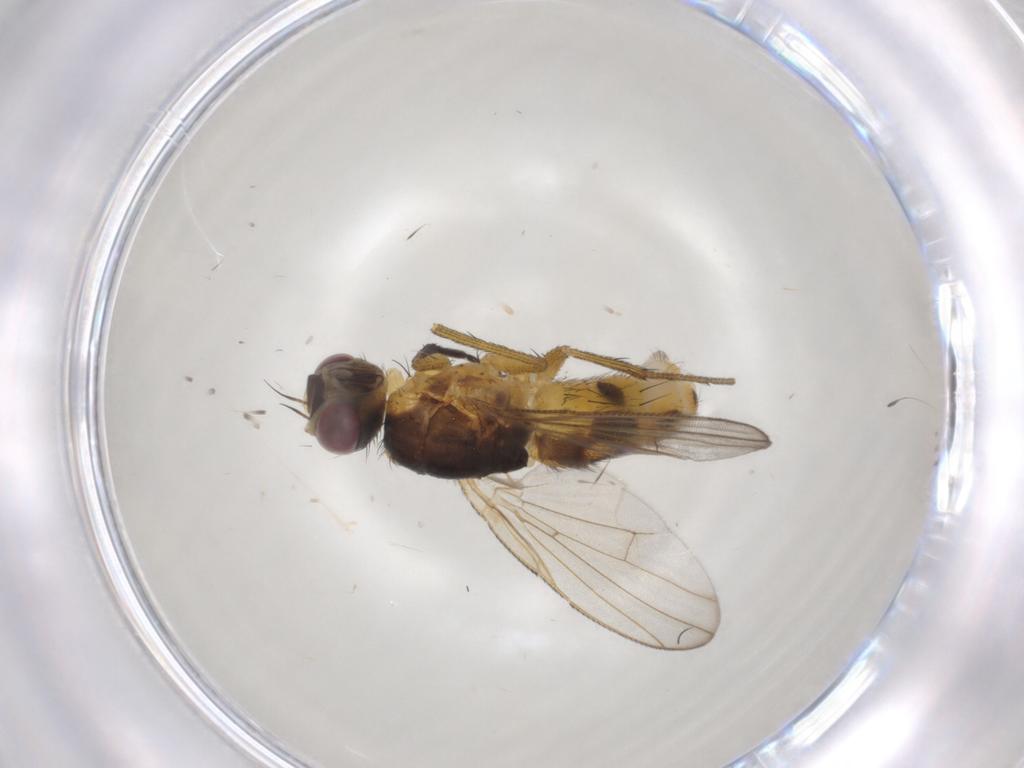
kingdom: Animalia
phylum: Arthropoda
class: Insecta
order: Diptera
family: Muscidae
